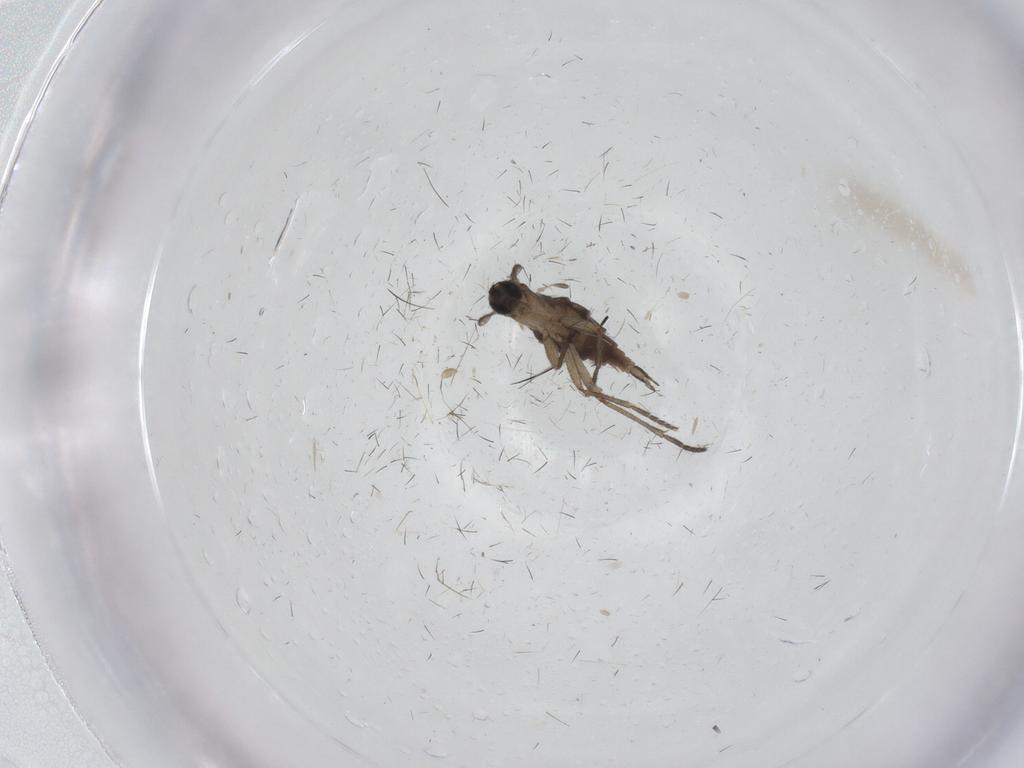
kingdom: Animalia
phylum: Arthropoda
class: Insecta
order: Diptera
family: Rhagionidae
